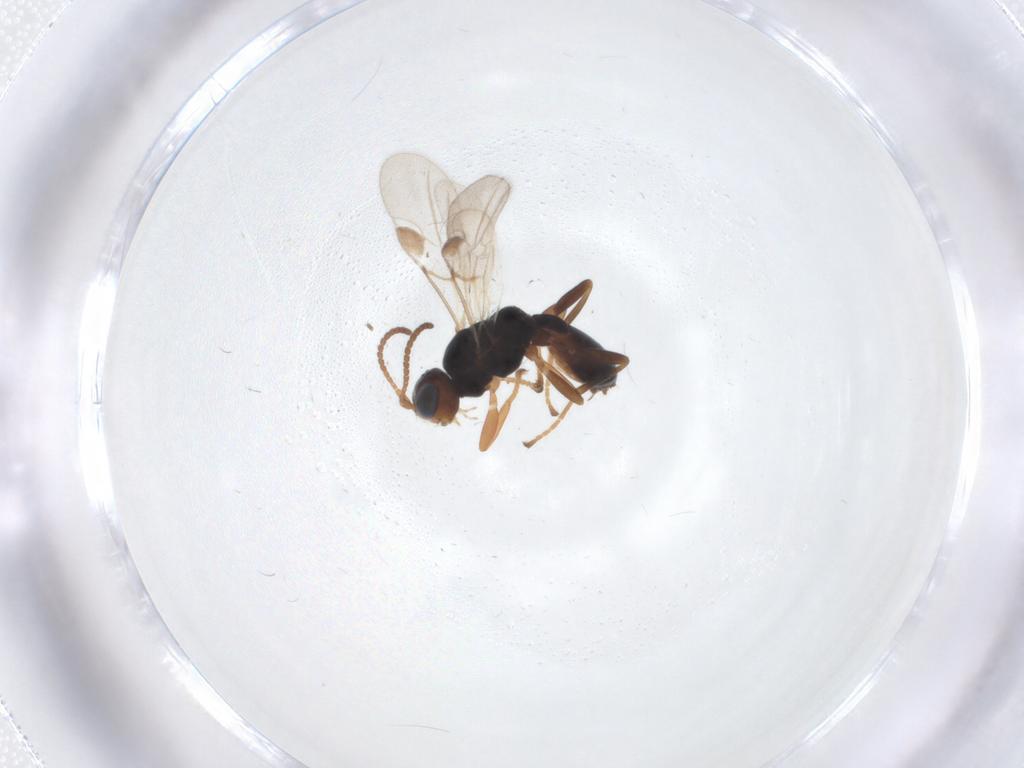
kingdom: Animalia
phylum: Arthropoda
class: Insecta
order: Hymenoptera
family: Braconidae
